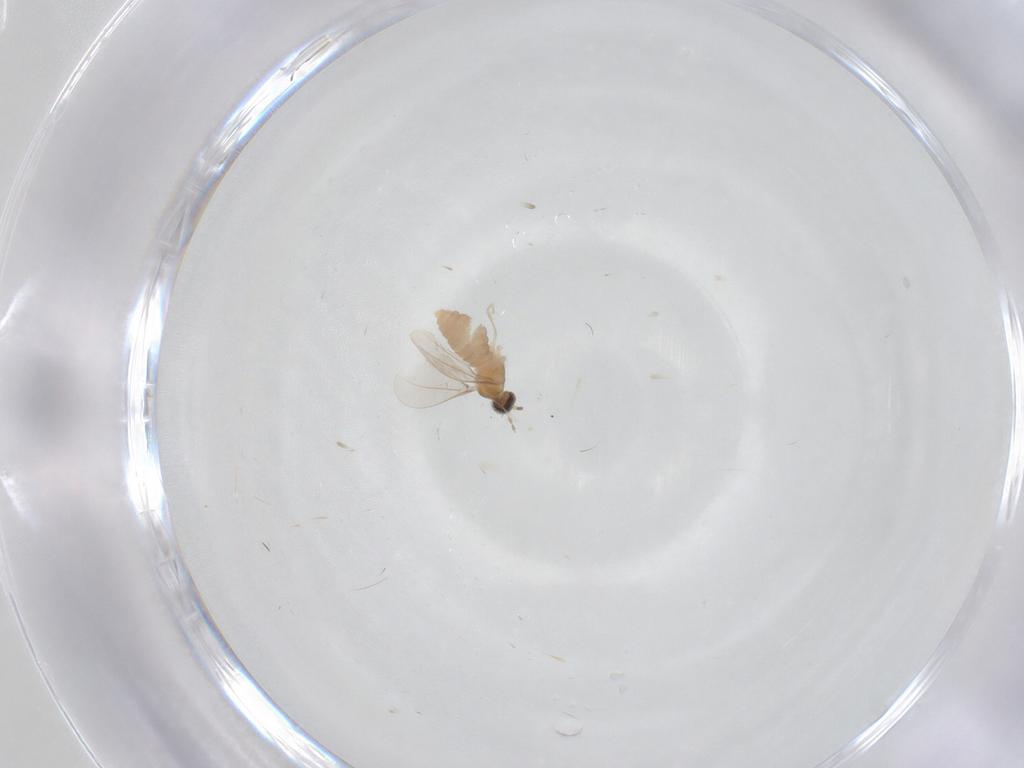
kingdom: Animalia
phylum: Arthropoda
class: Insecta
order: Diptera
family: Cecidomyiidae
